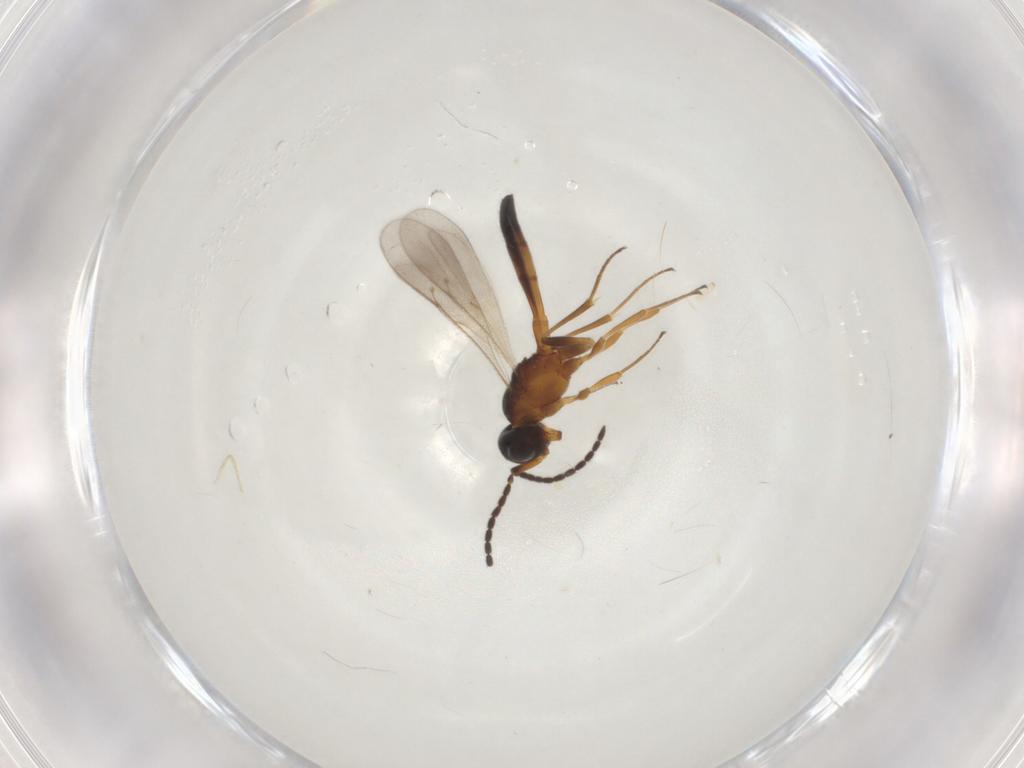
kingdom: Animalia
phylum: Arthropoda
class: Insecta
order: Hymenoptera
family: Scelionidae
